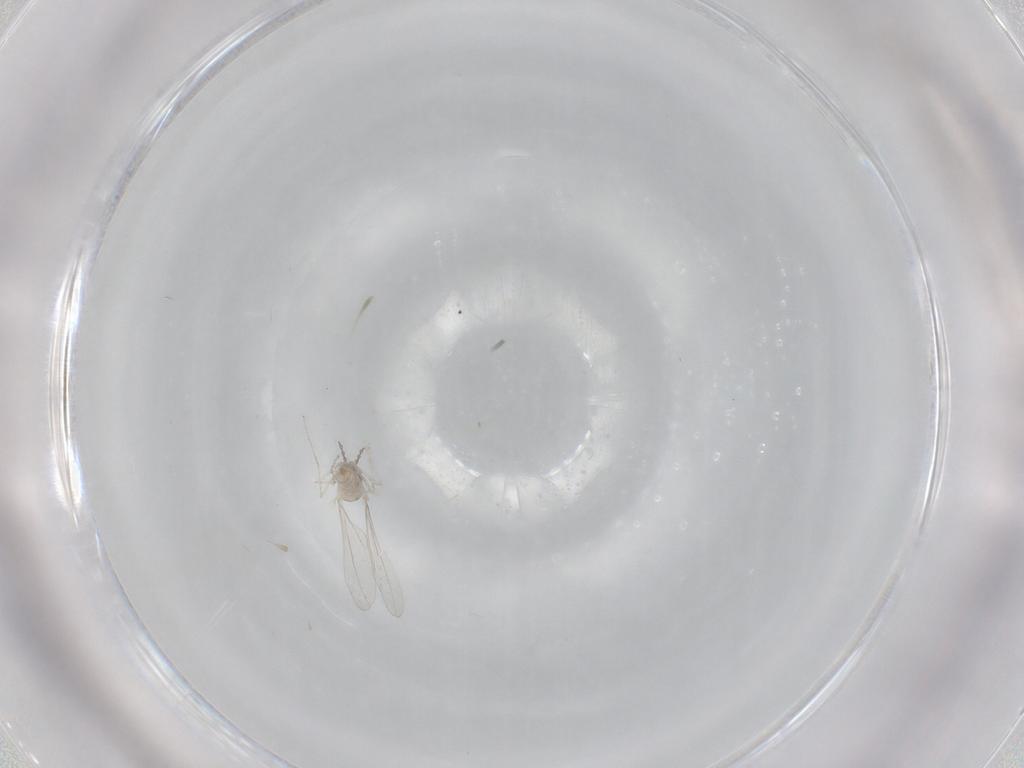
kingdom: Animalia
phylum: Arthropoda
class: Insecta
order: Diptera
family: Cecidomyiidae
